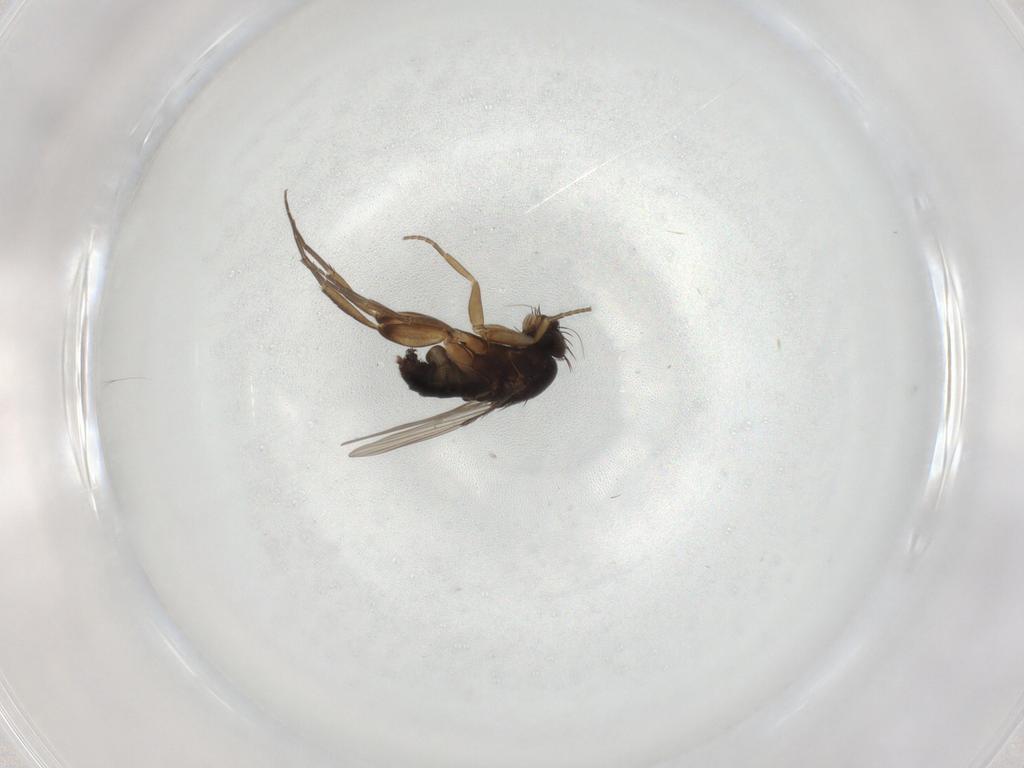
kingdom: Animalia
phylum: Arthropoda
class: Insecta
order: Diptera
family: Phoridae
